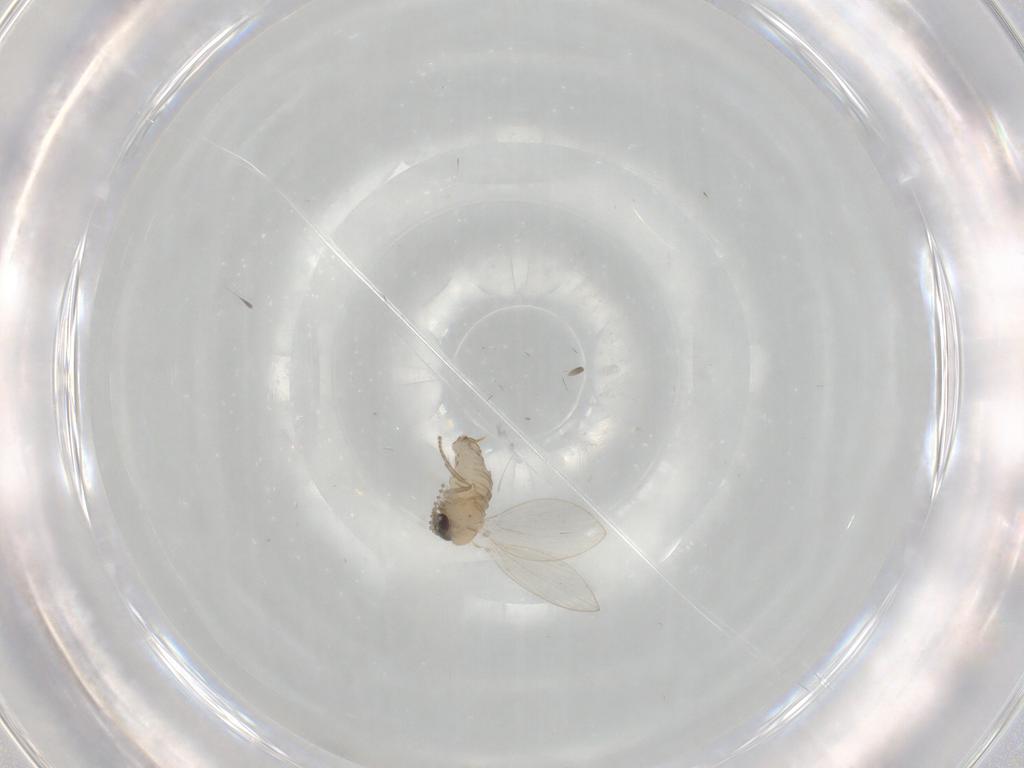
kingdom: Animalia
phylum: Arthropoda
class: Insecta
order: Diptera
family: Psychodidae
